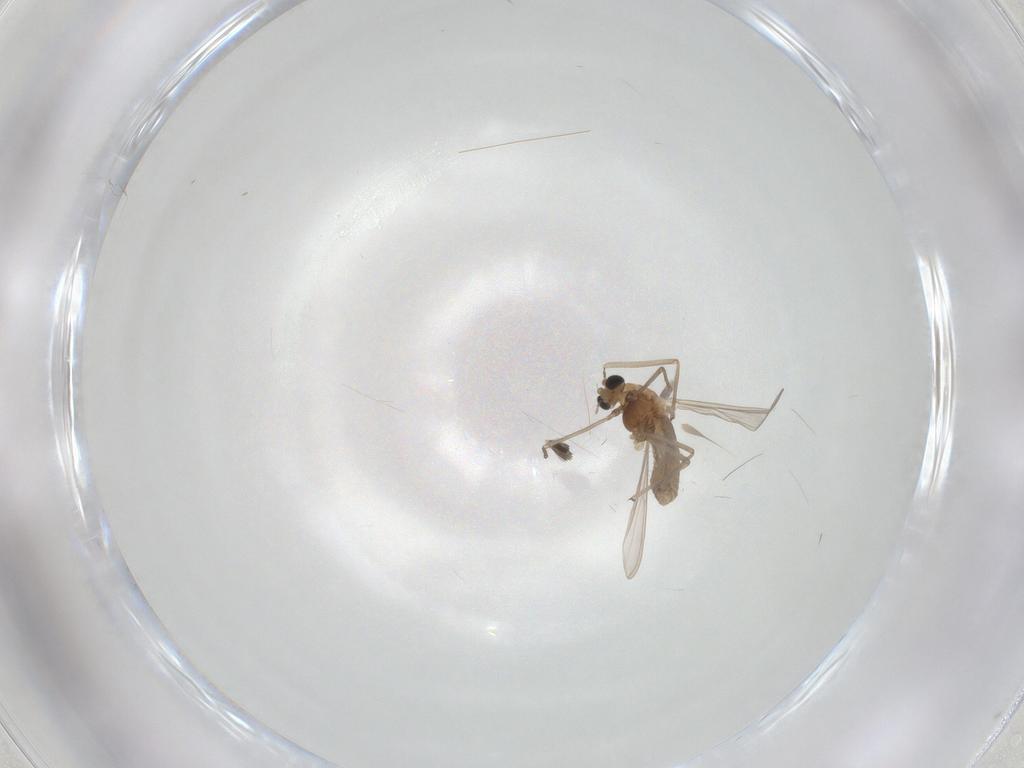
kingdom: Animalia
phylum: Arthropoda
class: Insecta
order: Diptera
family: Chironomidae
